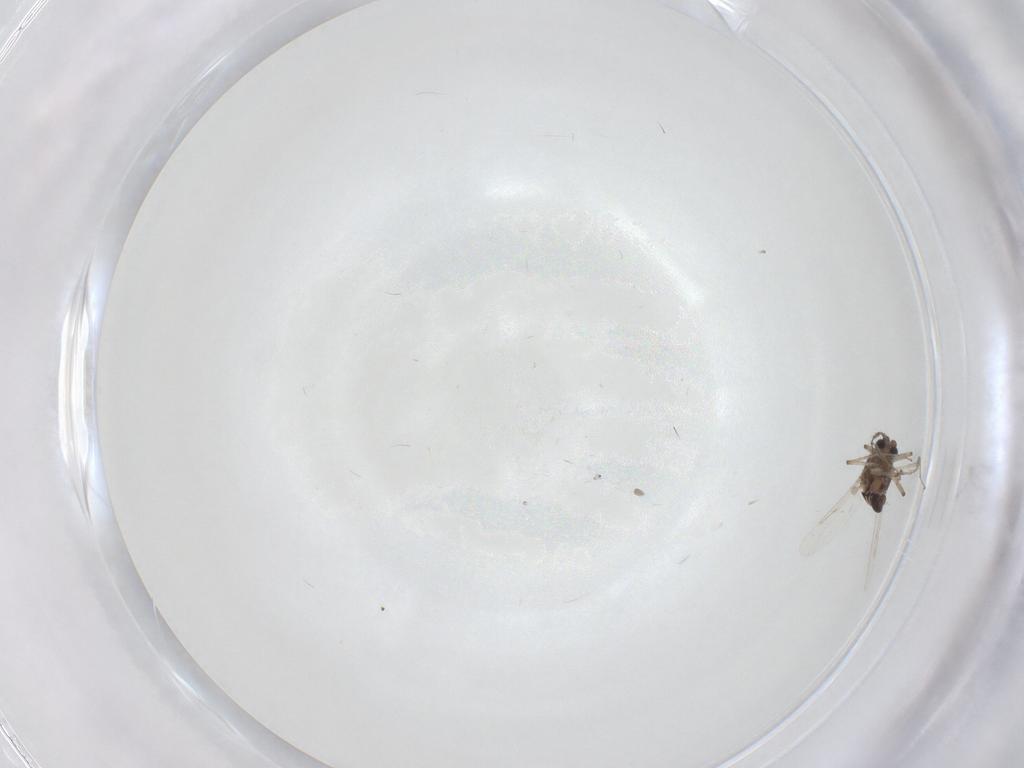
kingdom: Animalia
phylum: Arthropoda
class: Insecta
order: Diptera
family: Ceratopogonidae
